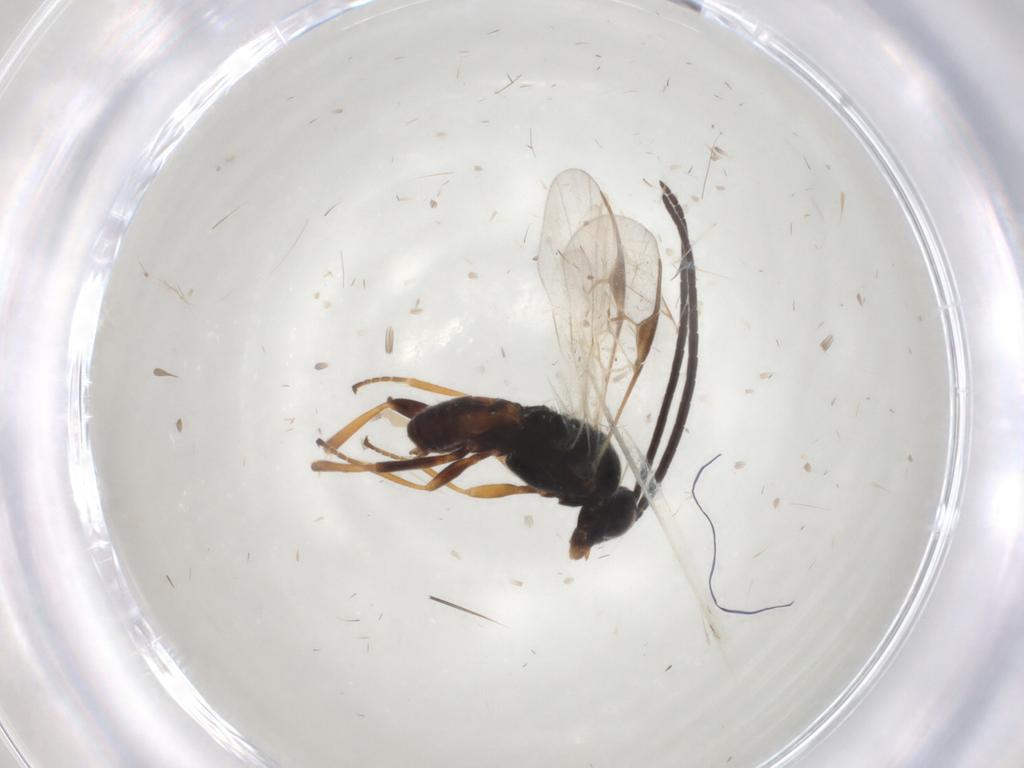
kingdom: Animalia
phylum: Arthropoda
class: Insecta
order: Hymenoptera
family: Braconidae
